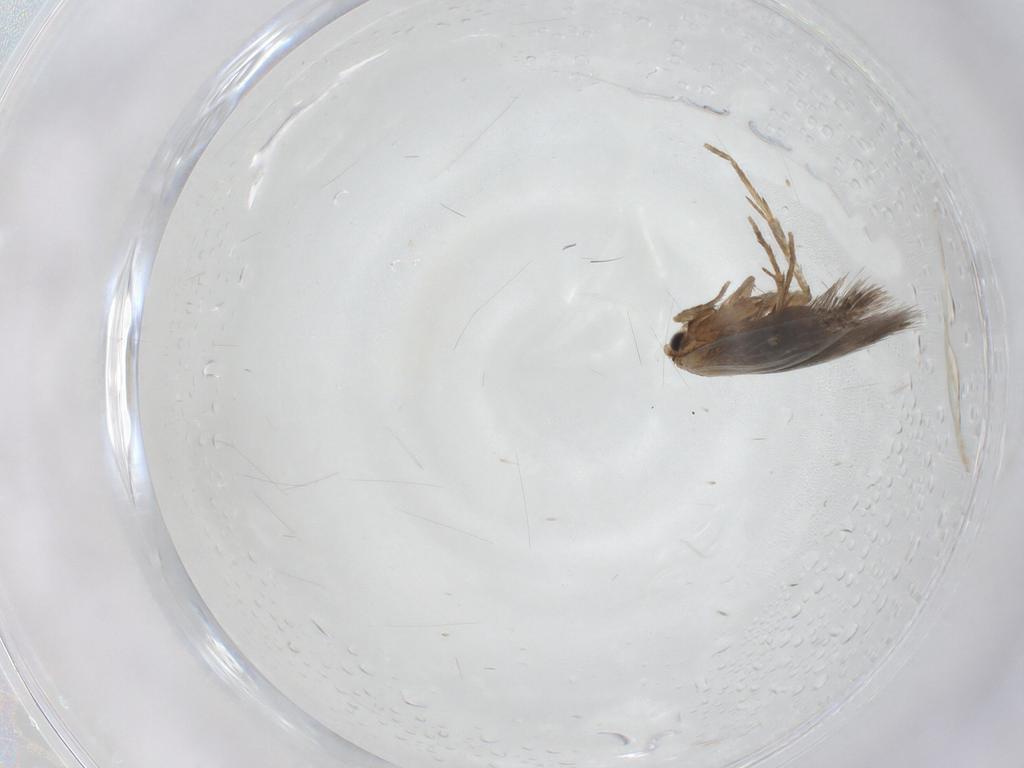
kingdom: Animalia
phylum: Arthropoda
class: Insecta
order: Lepidoptera
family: Nepticulidae
